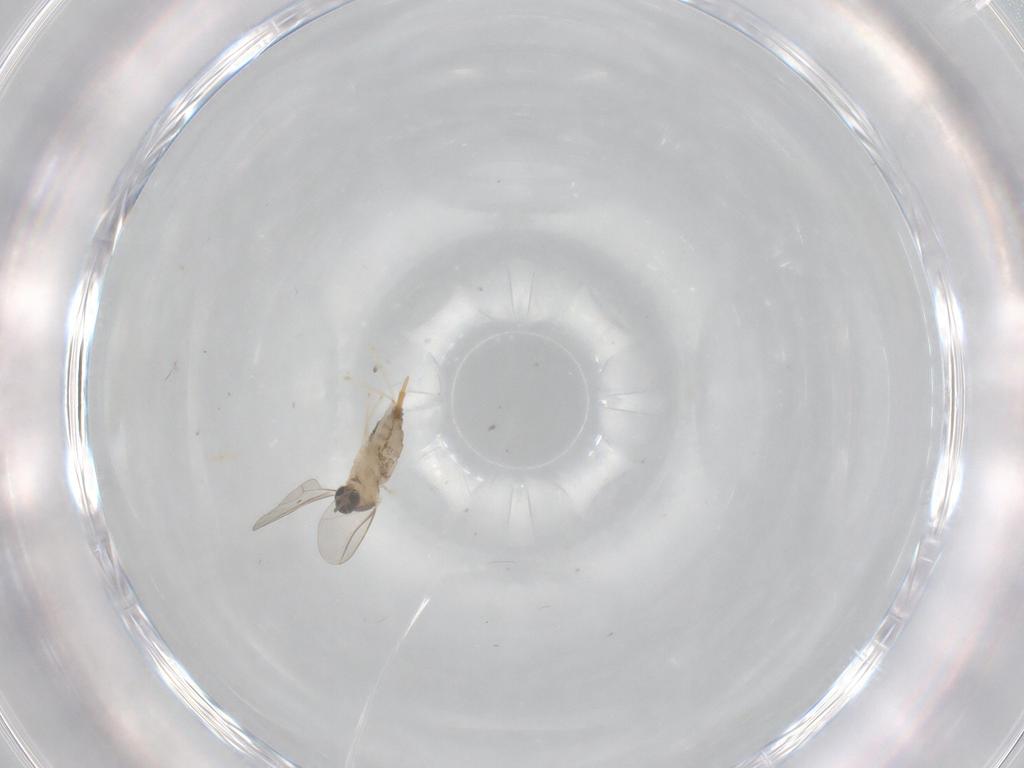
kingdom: Animalia
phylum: Arthropoda
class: Insecta
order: Diptera
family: Cecidomyiidae
